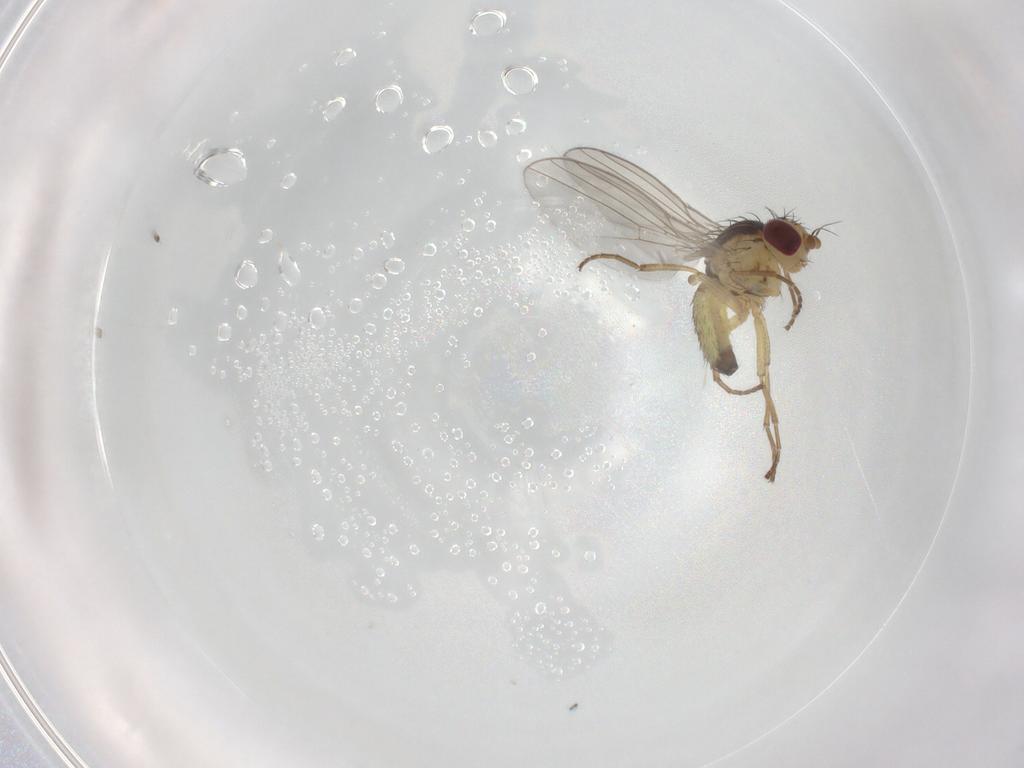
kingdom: Animalia
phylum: Arthropoda
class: Insecta
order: Diptera
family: Agromyzidae
